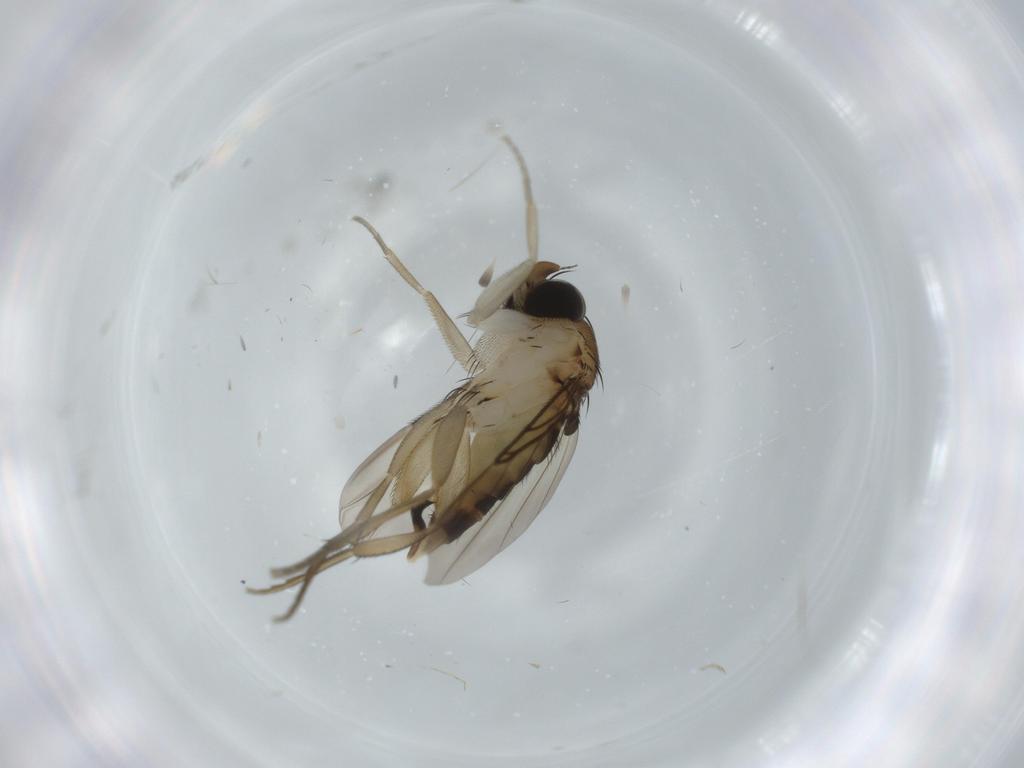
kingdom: Animalia
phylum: Arthropoda
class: Insecta
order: Diptera
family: Phoridae
